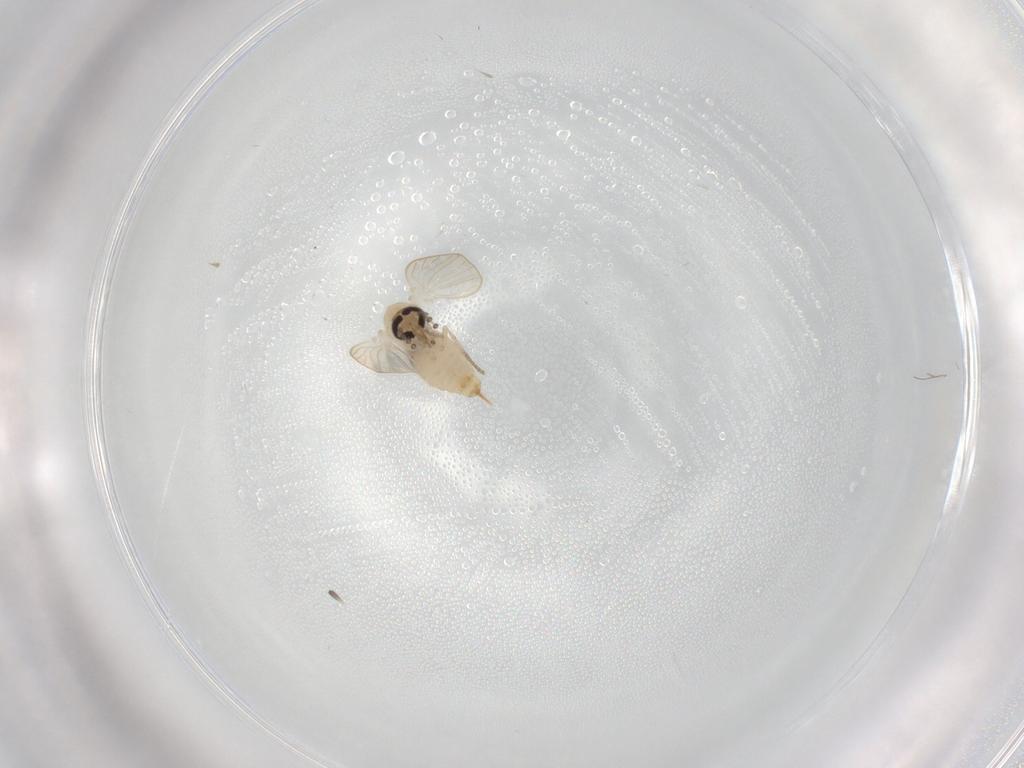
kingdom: Animalia
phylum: Arthropoda
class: Insecta
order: Diptera
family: Psychodidae
